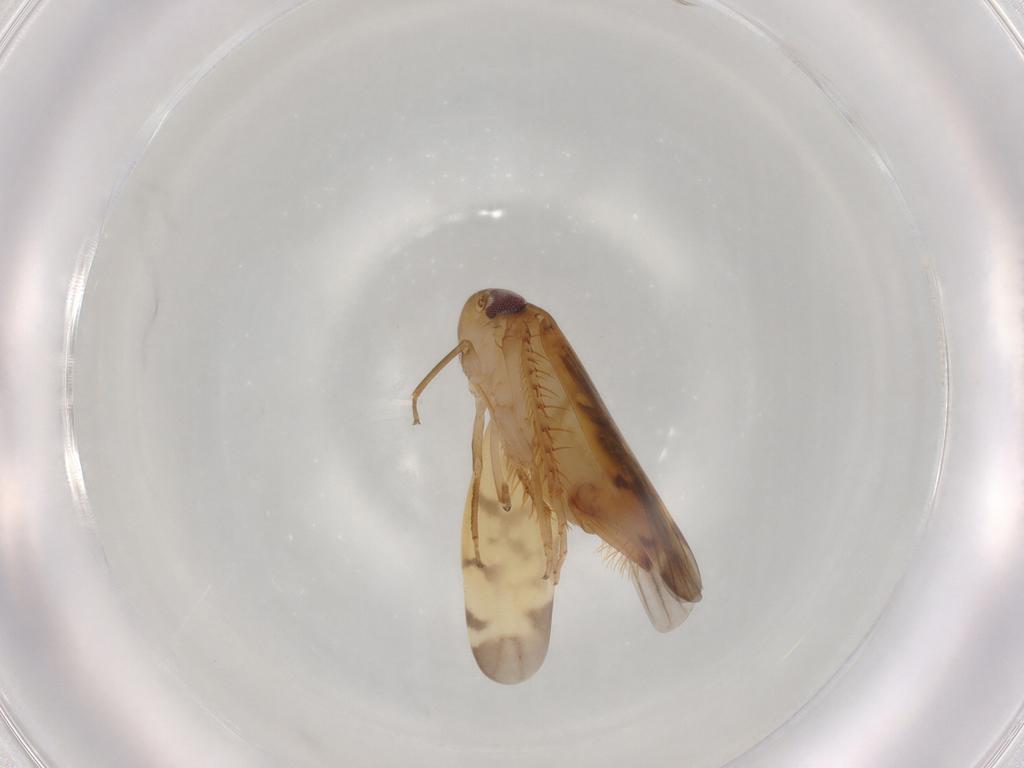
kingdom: Animalia
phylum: Arthropoda
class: Insecta
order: Hemiptera
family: Cicadellidae
